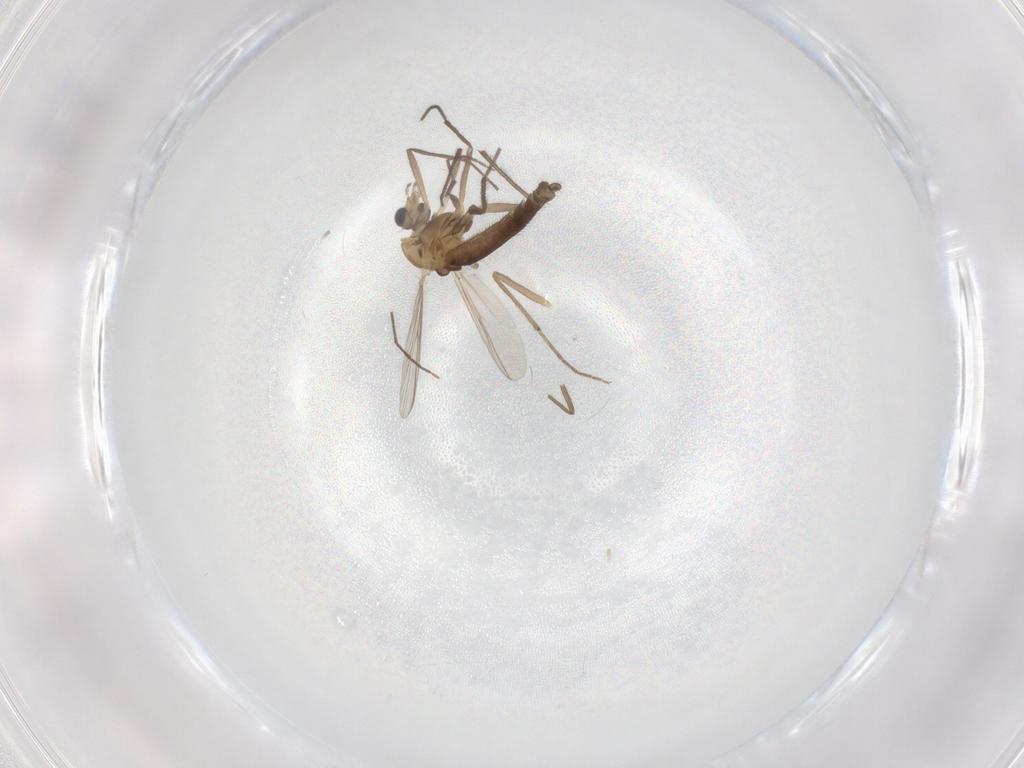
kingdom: Animalia
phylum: Arthropoda
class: Insecta
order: Diptera
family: Chironomidae
